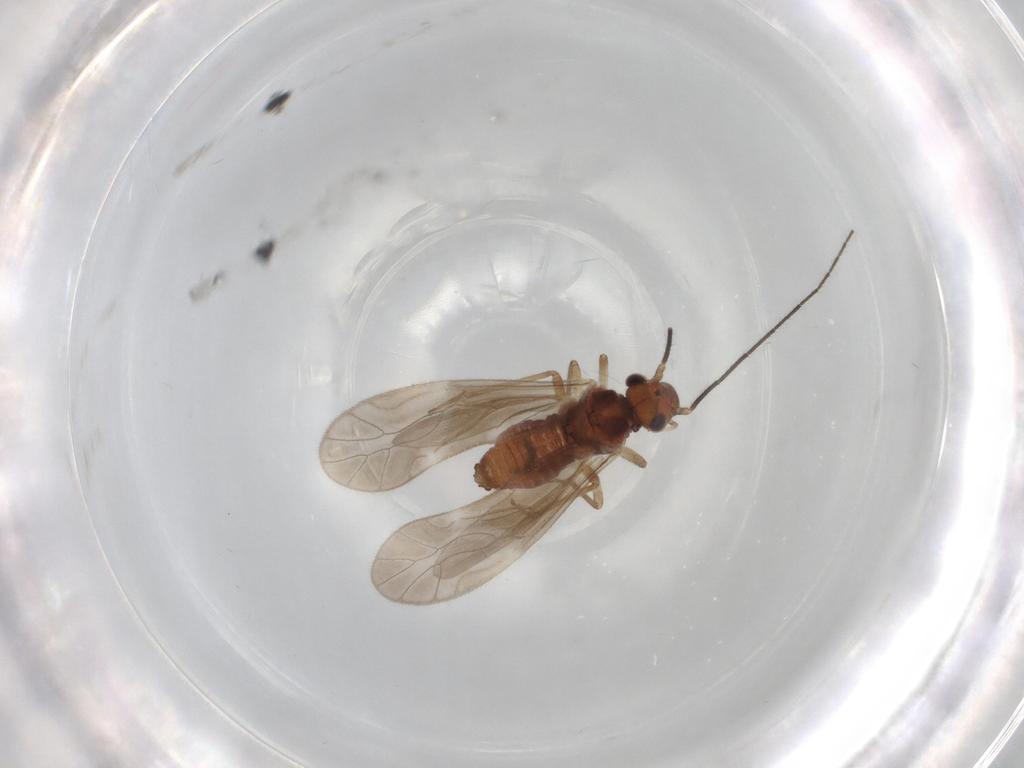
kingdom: Animalia
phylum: Arthropoda
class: Insecta
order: Psocodea
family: Caeciliusidae
